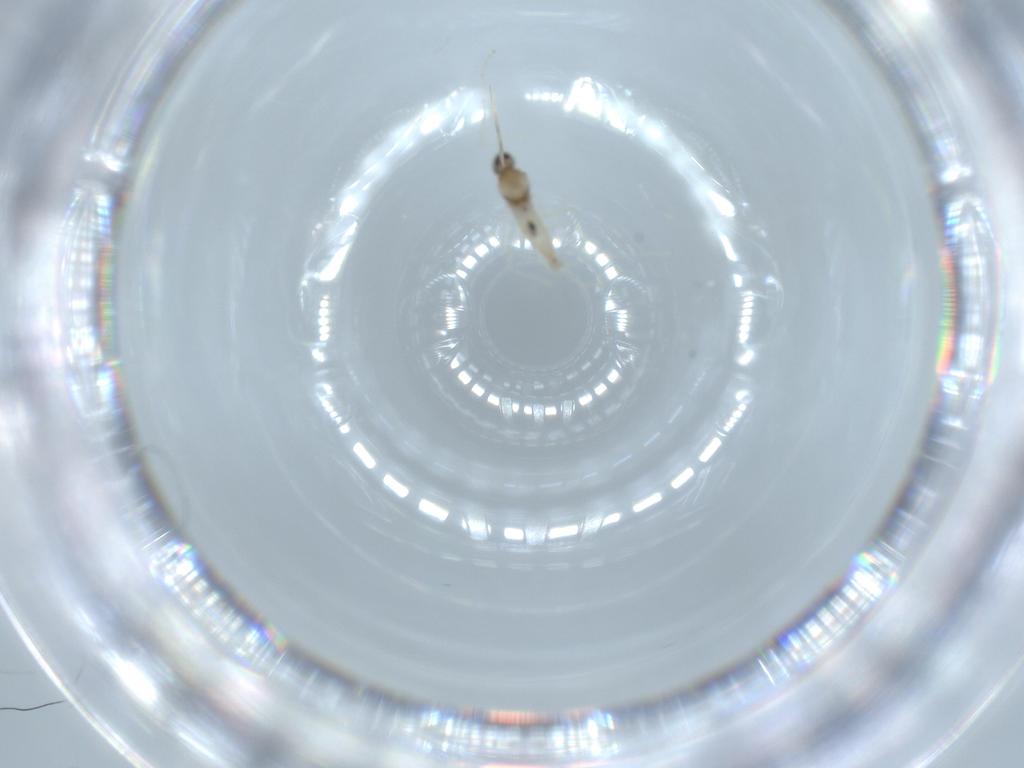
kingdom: Animalia
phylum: Arthropoda
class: Insecta
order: Diptera
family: Cecidomyiidae
